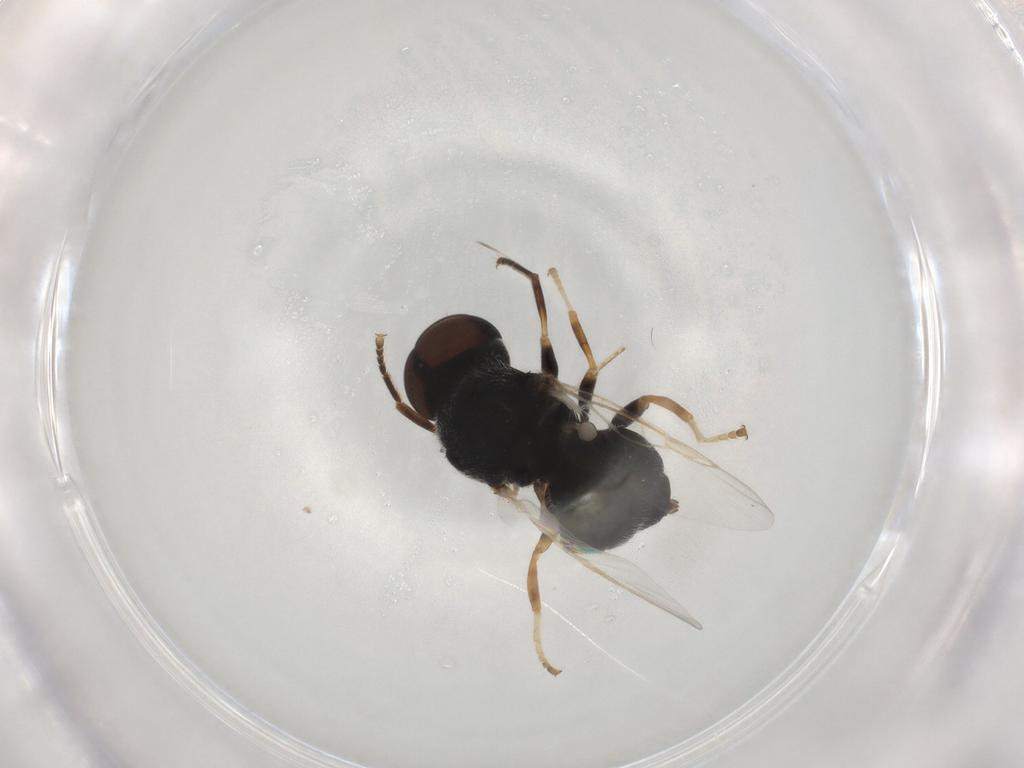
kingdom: Animalia
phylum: Arthropoda
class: Insecta
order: Diptera
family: Stratiomyidae
